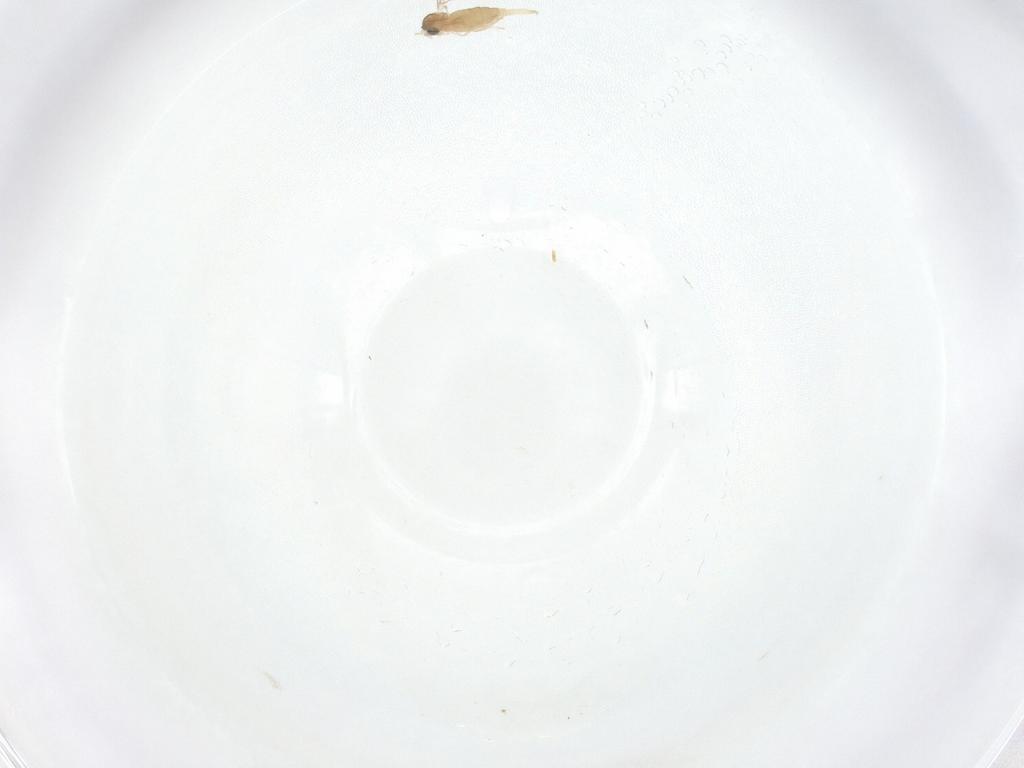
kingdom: Animalia
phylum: Arthropoda
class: Insecta
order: Diptera
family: Cecidomyiidae
